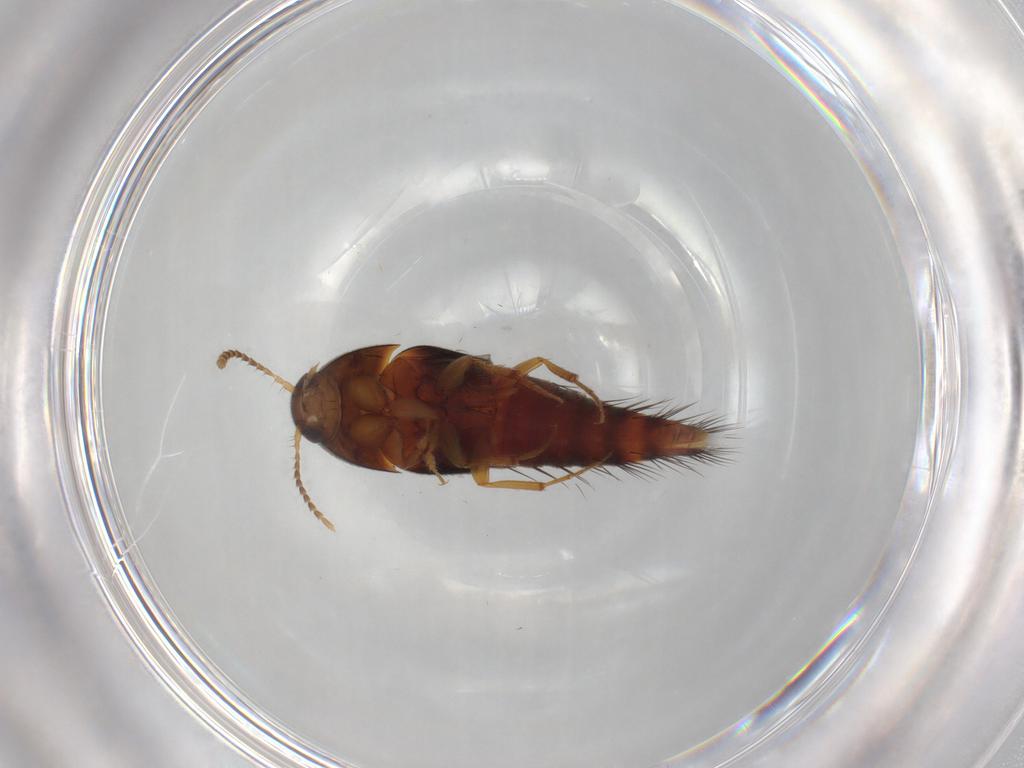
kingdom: Animalia
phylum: Arthropoda
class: Insecta
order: Coleoptera
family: Staphylinidae
